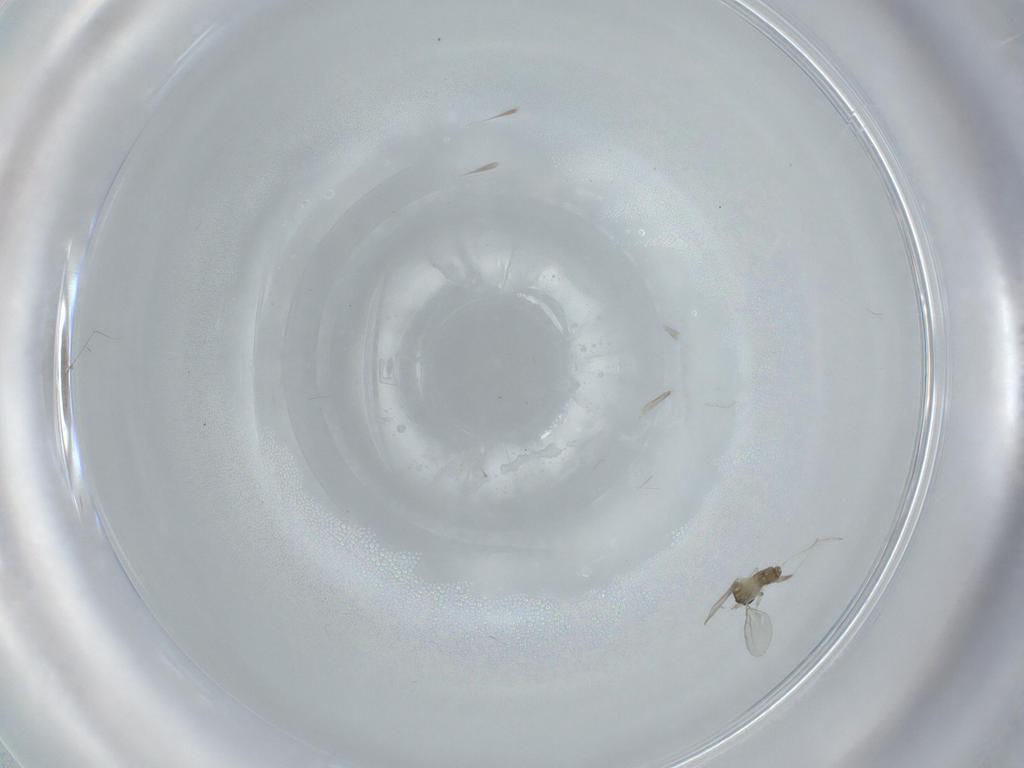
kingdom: Animalia
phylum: Arthropoda
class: Insecta
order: Diptera
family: Cecidomyiidae
